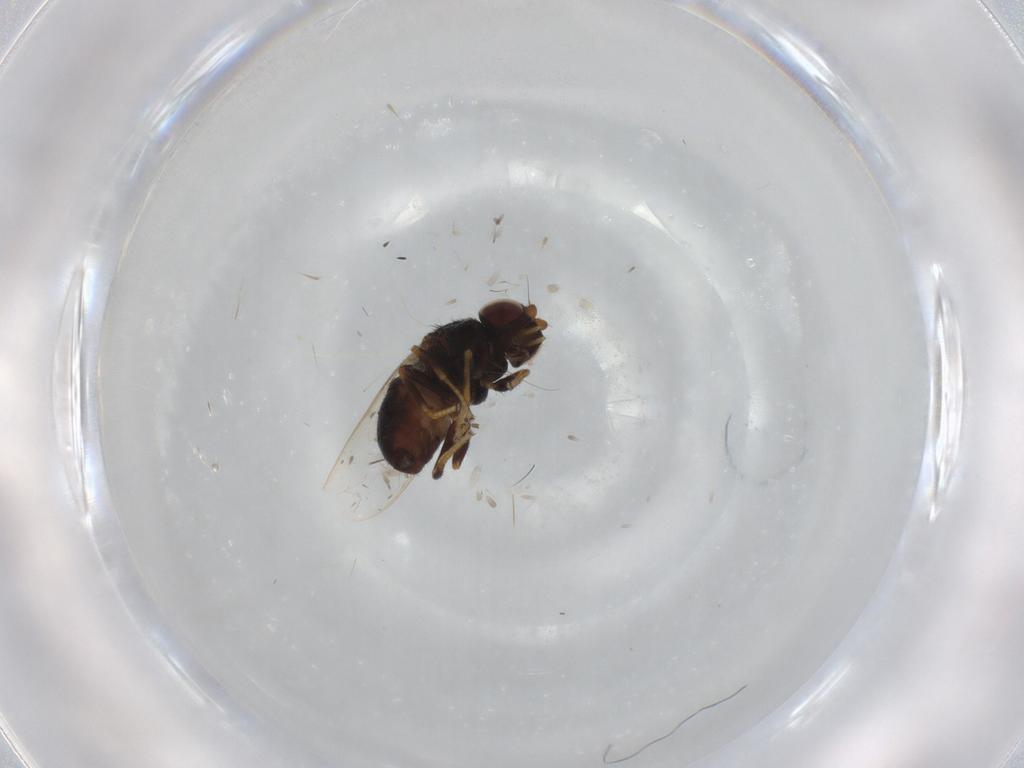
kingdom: Animalia
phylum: Arthropoda
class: Insecta
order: Diptera
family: Chloropidae
